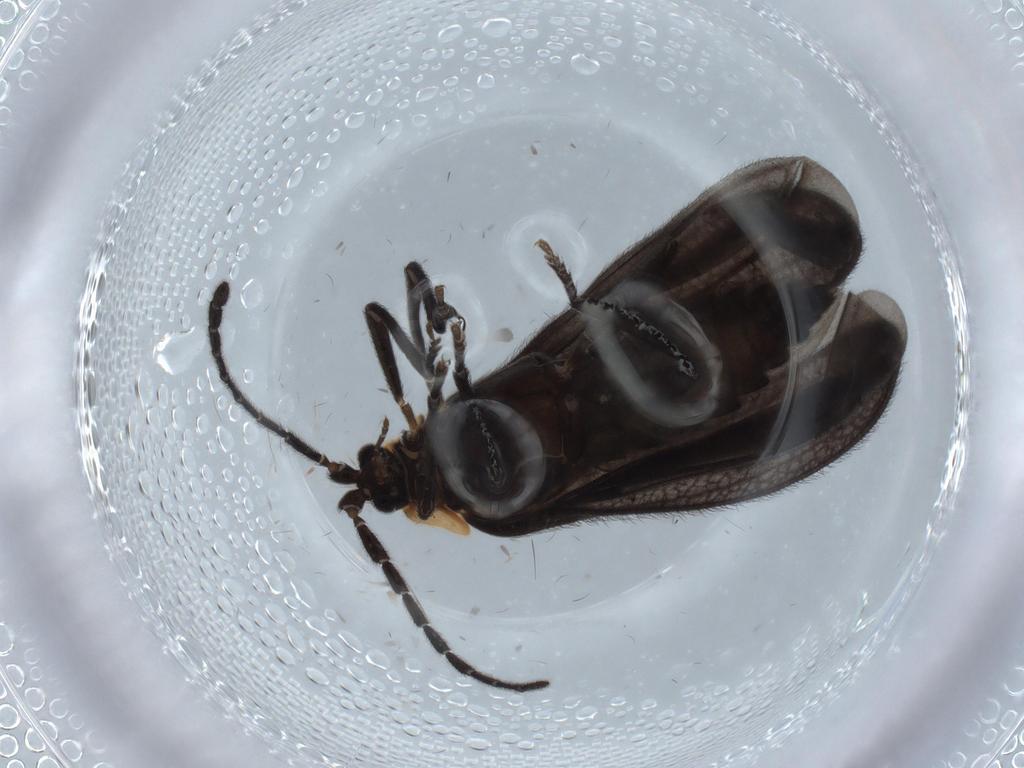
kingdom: Animalia
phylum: Arthropoda
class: Insecta
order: Coleoptera
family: Lycidae
